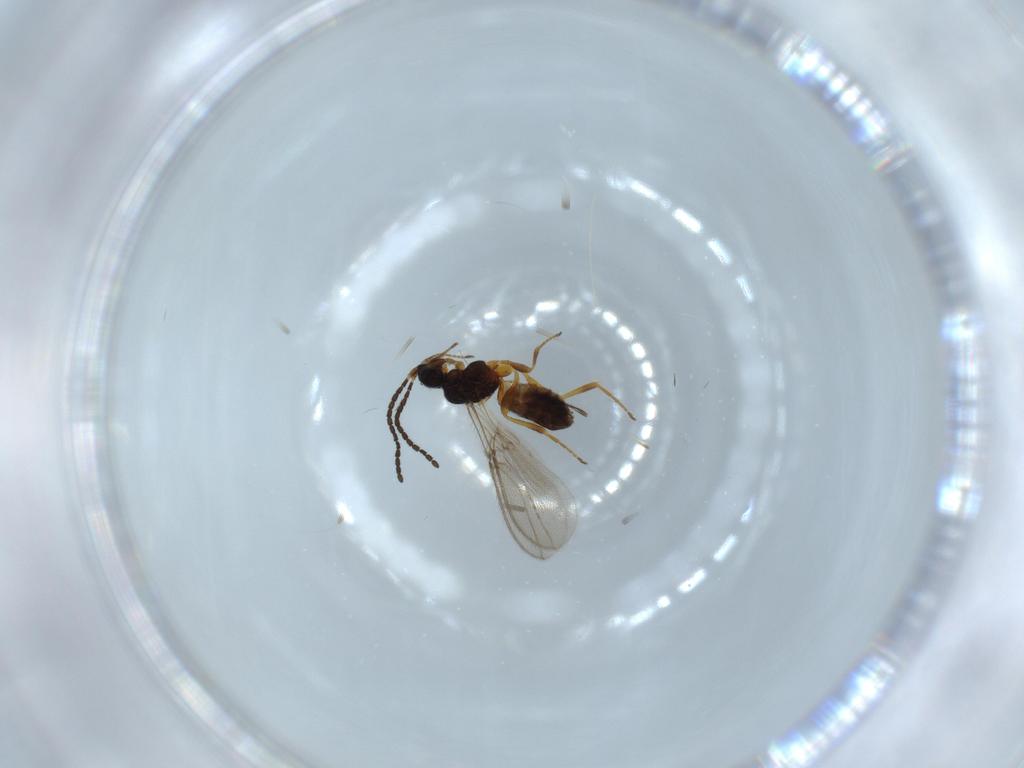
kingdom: Animalia
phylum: Arthropoda
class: Insecta
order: Hymenoptera
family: Braconidae
